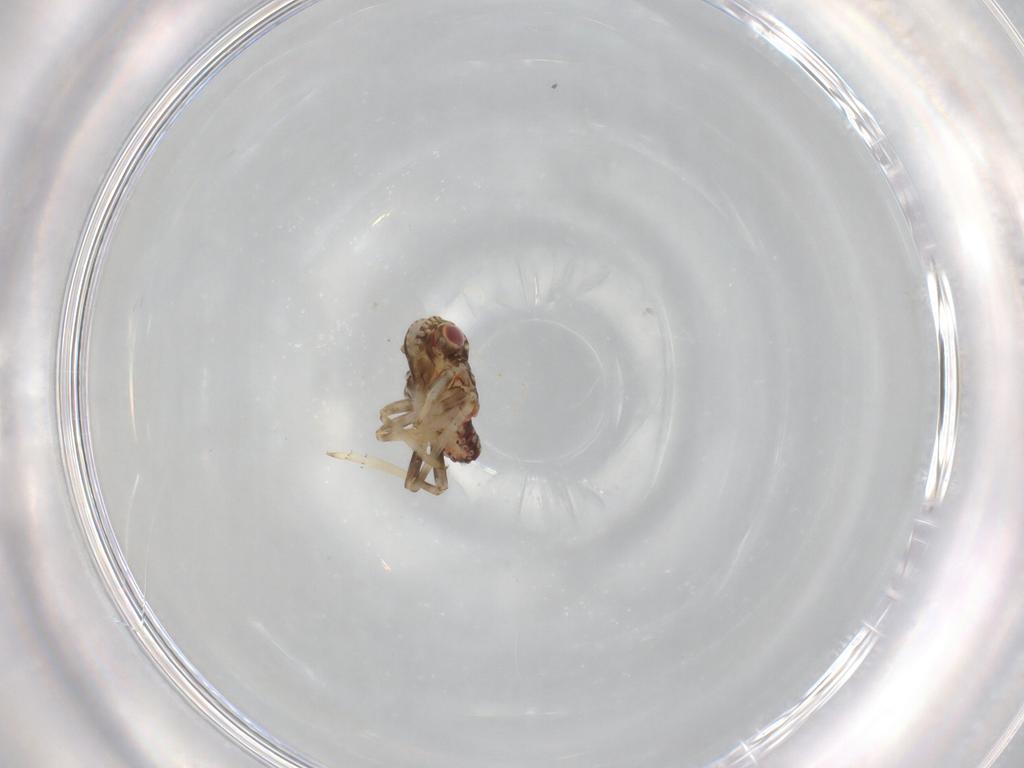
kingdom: Animalia
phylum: Arthropoda
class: Insecta
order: Hemiptera
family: Tropiduchidae
